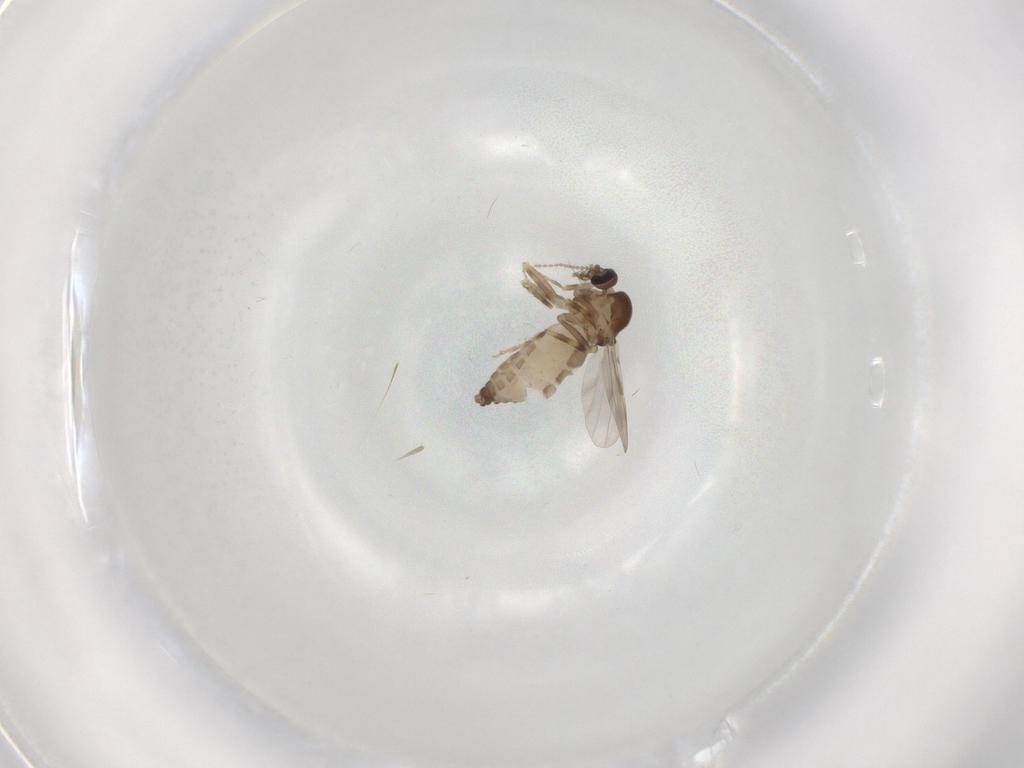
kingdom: Animalia
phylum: Arthropoda
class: Insecta
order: Diptera
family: Ceratopogonidae
